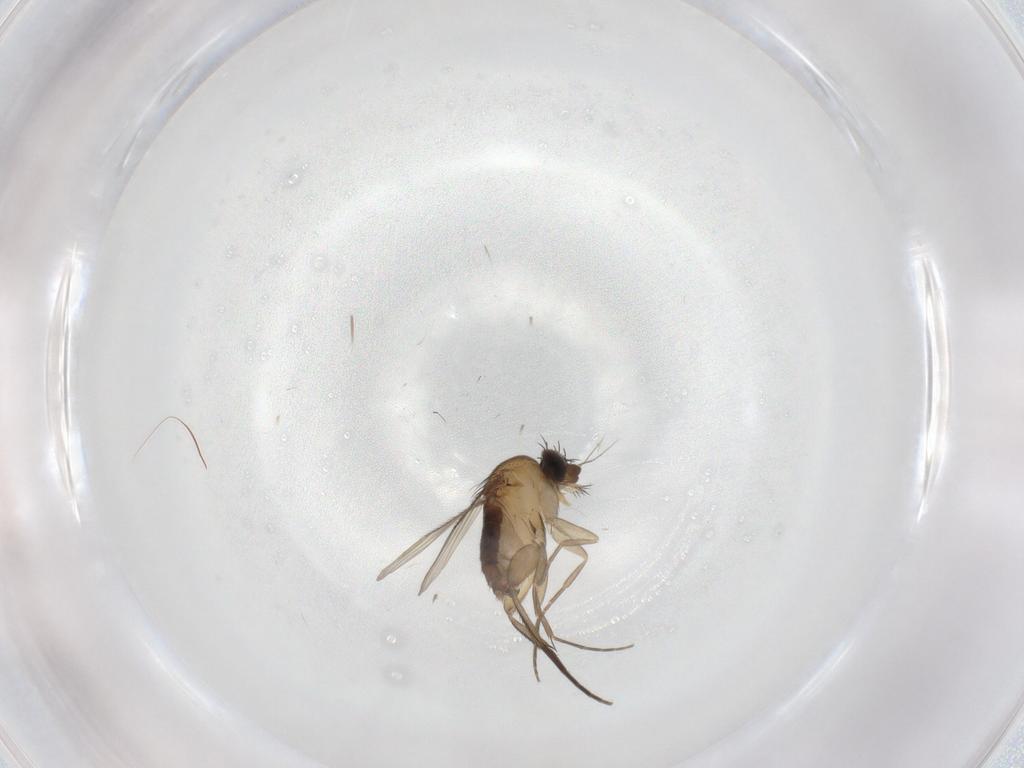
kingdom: Animalia
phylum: Arthropoda
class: Insecta
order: Diptera
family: Phoridae
